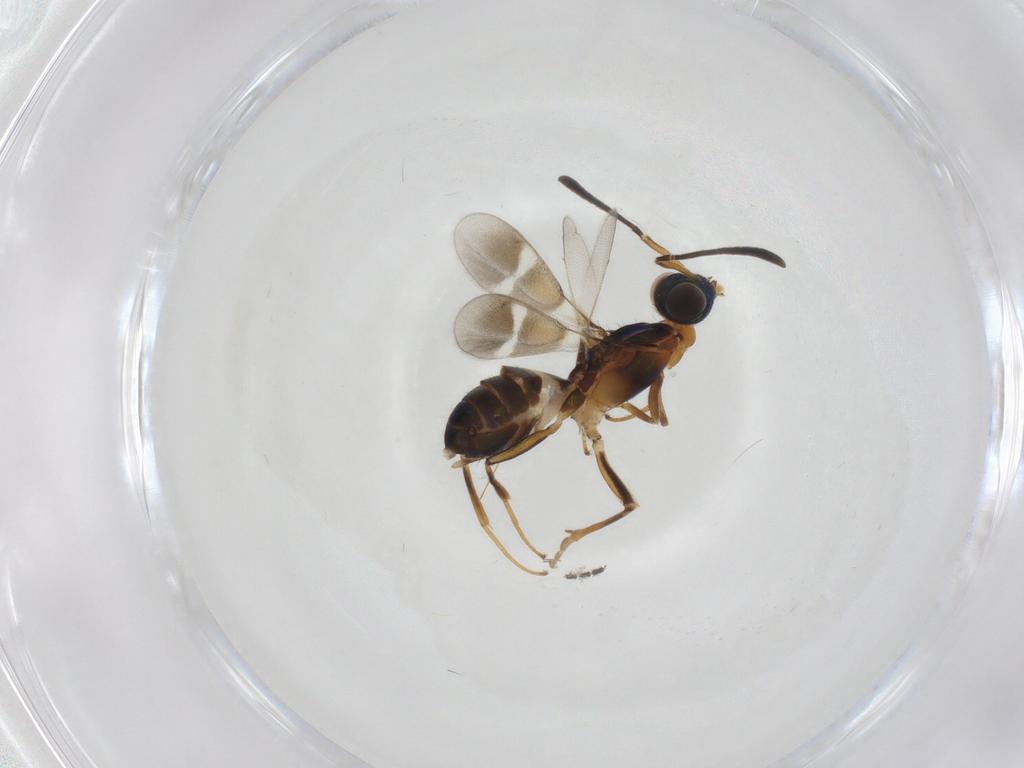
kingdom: Animalia
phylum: Arthropoda
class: Insecta
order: Hymenoptera
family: Eupelmidae
